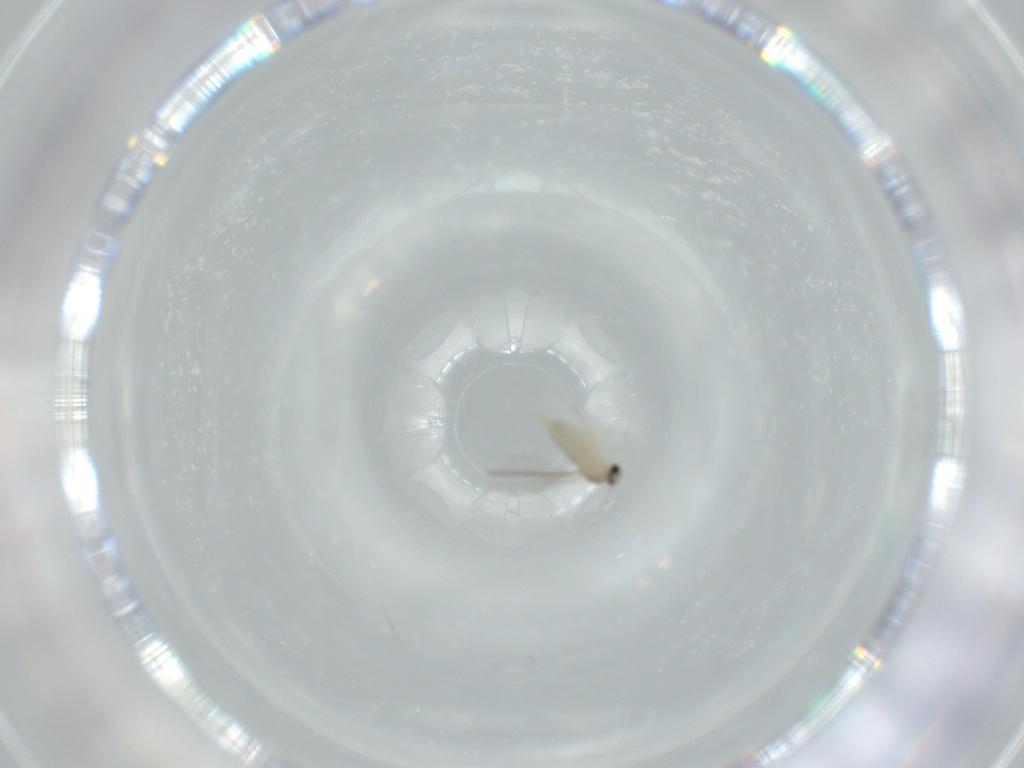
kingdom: Animalia
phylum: Arthropoda
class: Insecta
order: Diptera
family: Cecidomyiidae
